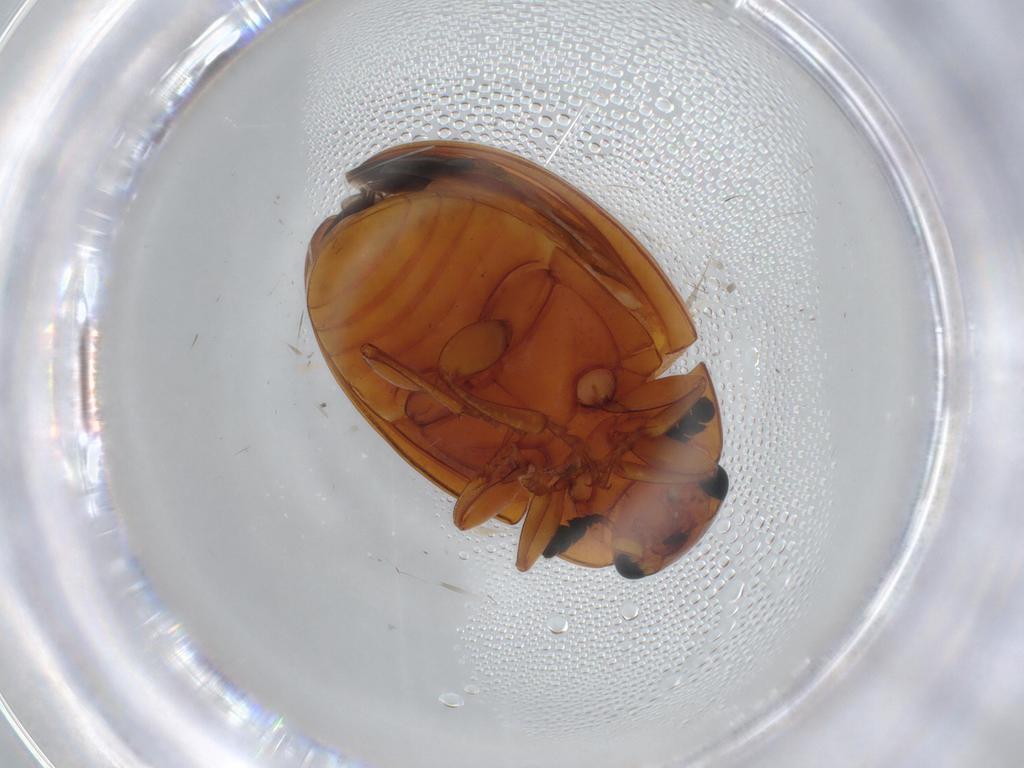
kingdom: Animalia
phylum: Arthropoda
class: Insecta
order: Coleoptera
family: Erotylidae
